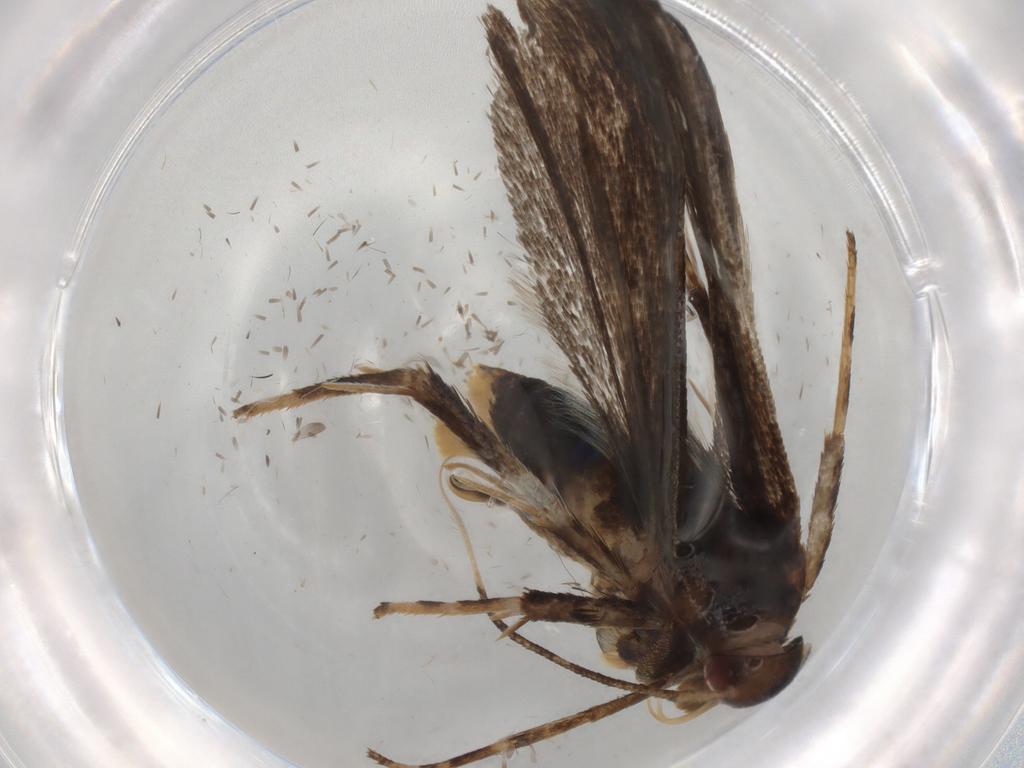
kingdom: Animalia
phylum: Arthropoda
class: Insecta
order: Lepidoptera
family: Gelechiidae
